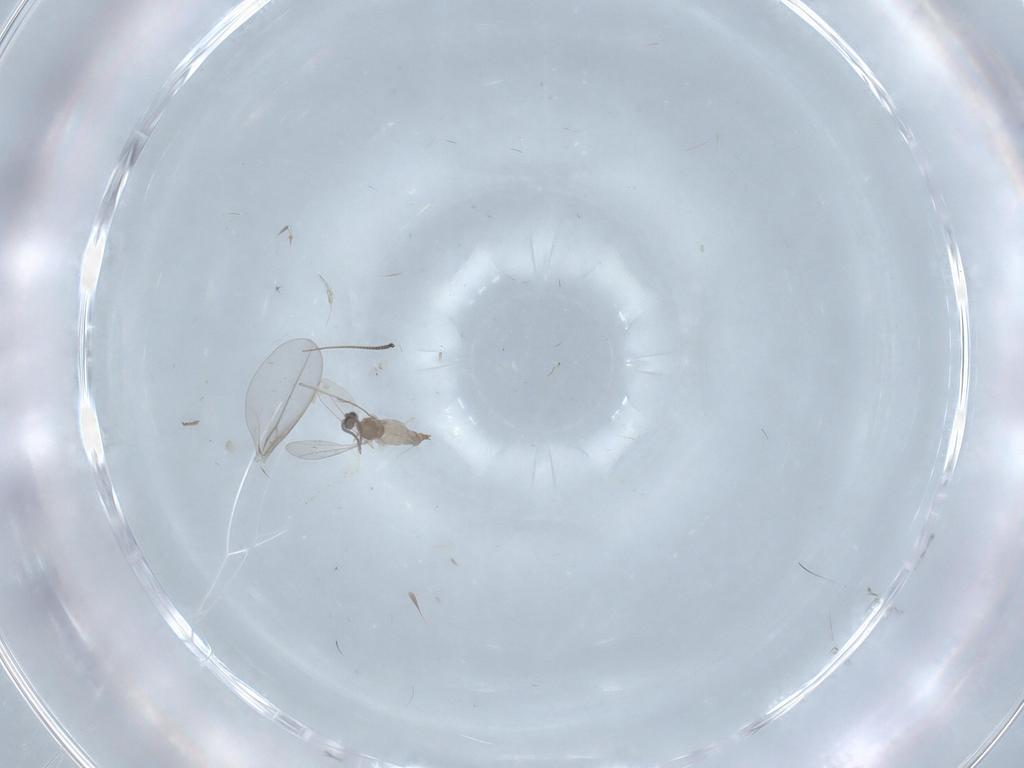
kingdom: Animalia
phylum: Arthropoda
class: Insecta
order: Diptera
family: Cecidomyiidae
